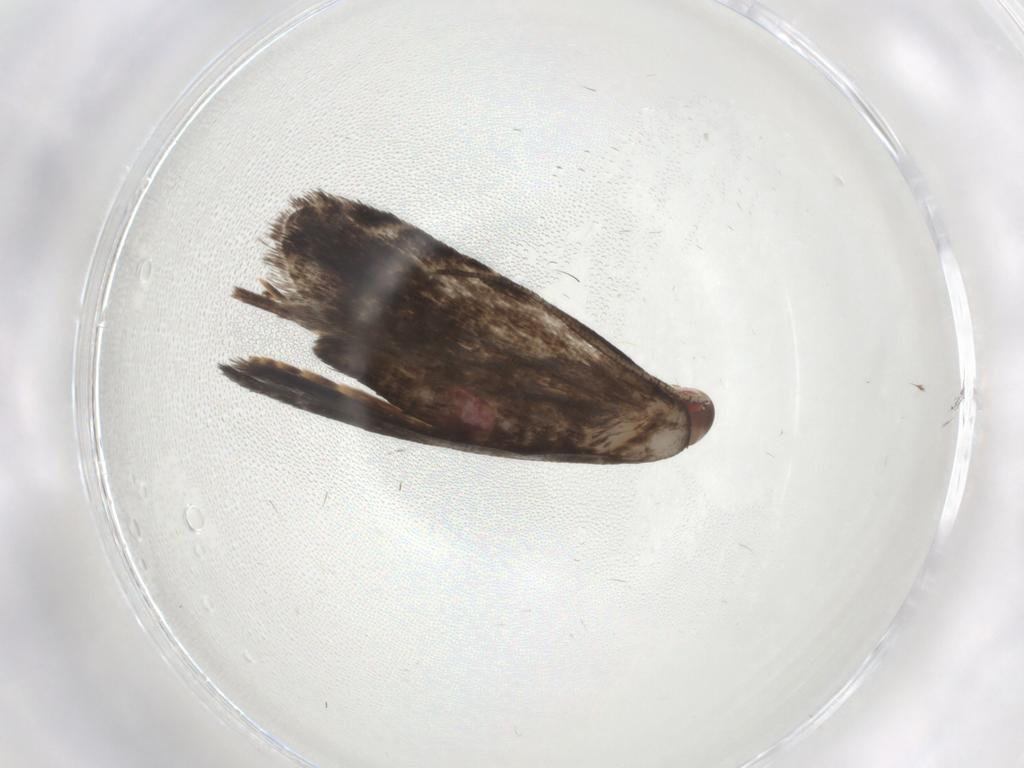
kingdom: Animalia
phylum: Arthropoda
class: Insecta
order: Lepidoptera
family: Gelechiidae
